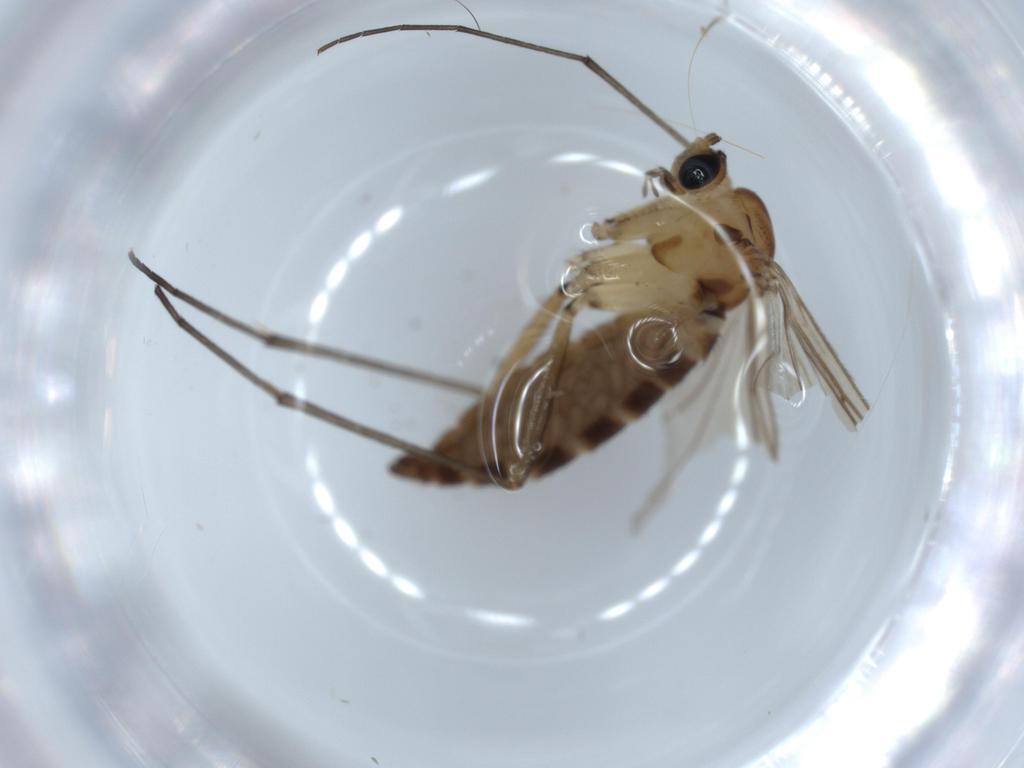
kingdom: Animalia
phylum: Arthropoda
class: Insecta
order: Diptera
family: Sciaridae
